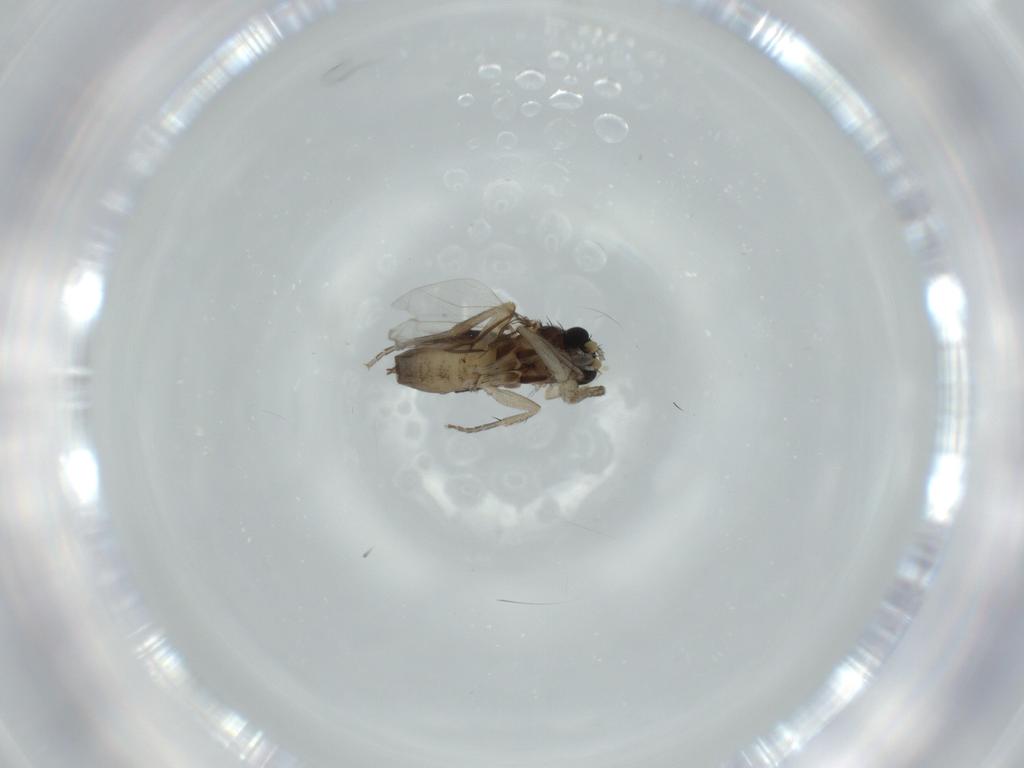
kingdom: Animalia
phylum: Arthropoda
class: Insecta
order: Diptera
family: Phoridae
